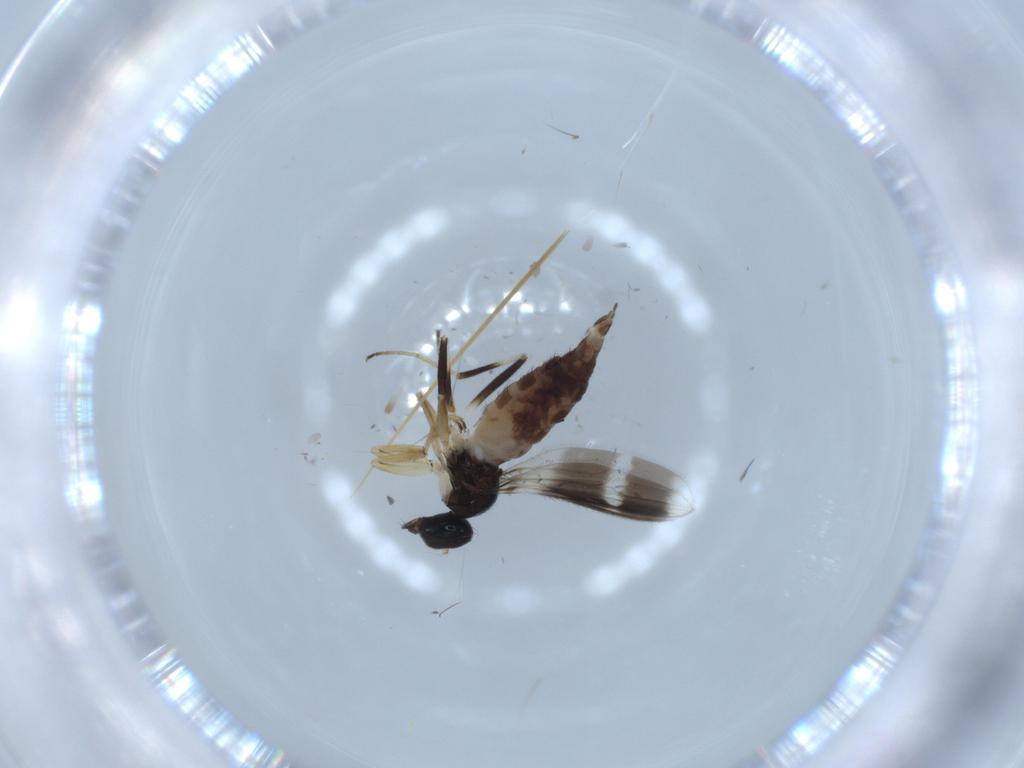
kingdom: Animalia
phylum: Arthropoda
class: Insecta
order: Diptera
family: Hybotidae
